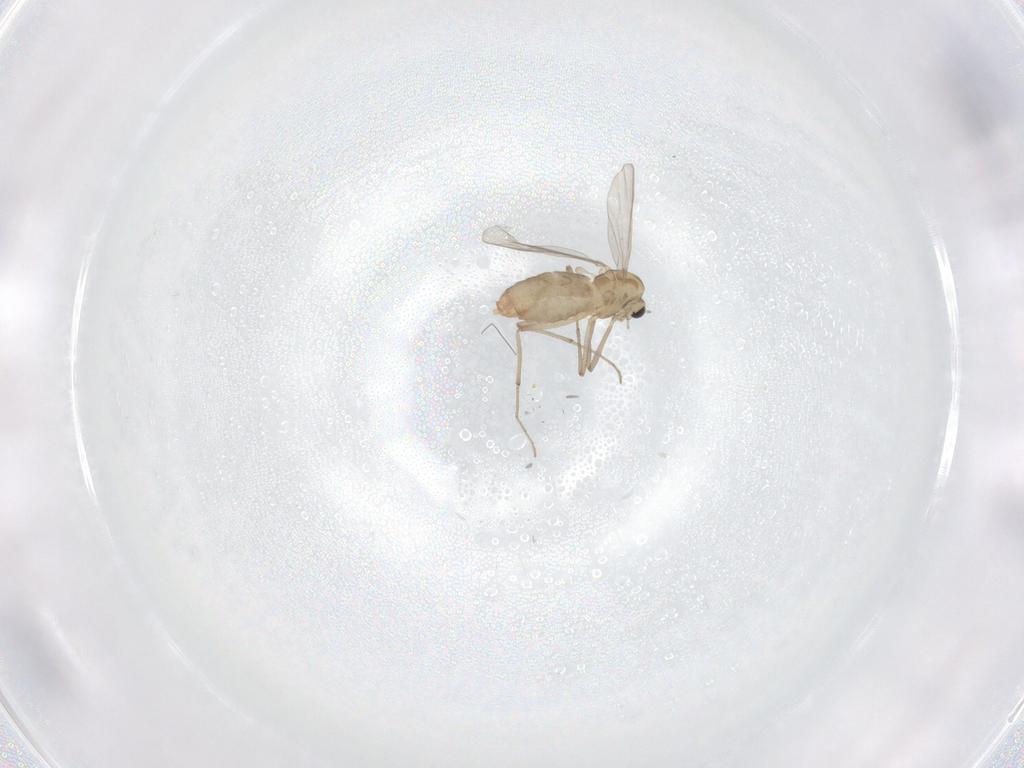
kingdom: Animalia
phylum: Arthropoda
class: Insecta
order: Diptera
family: Chironomidae
